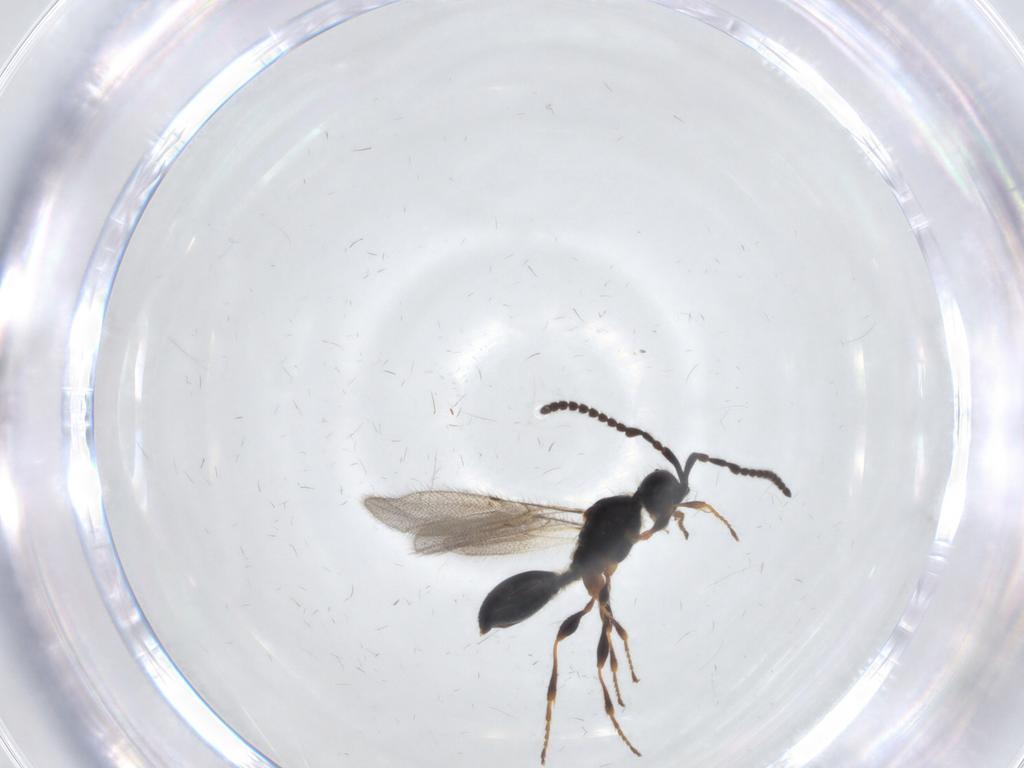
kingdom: Animalia
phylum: Arthropoda
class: Insecta
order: Hymenoptera
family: Diapriidae
